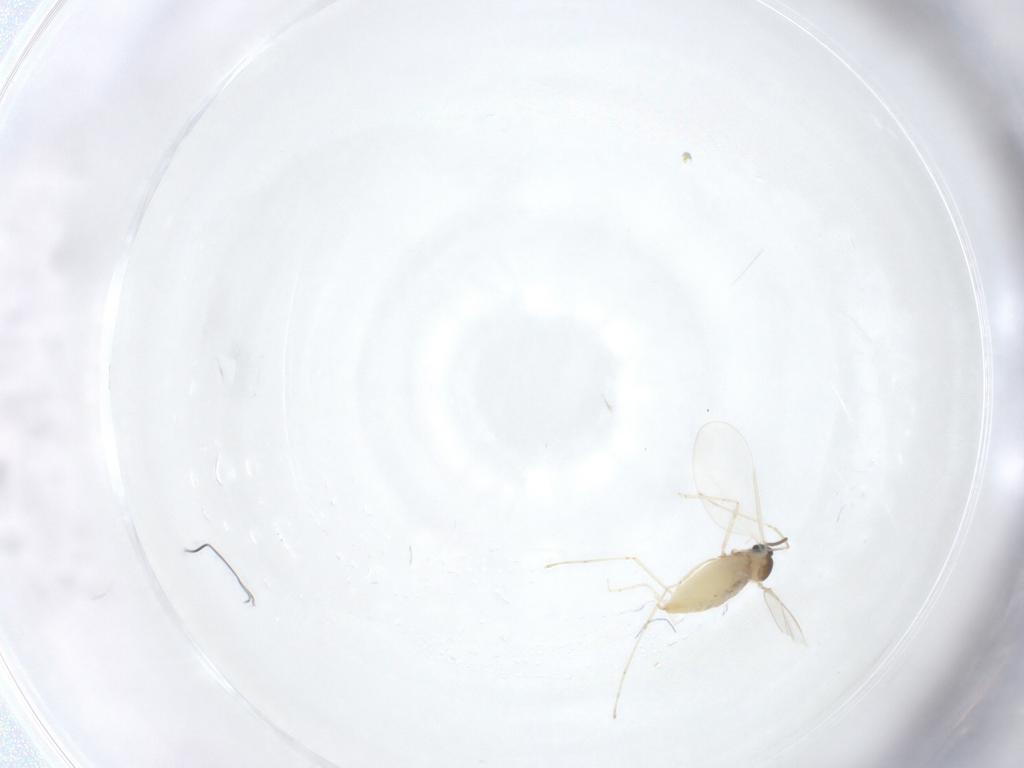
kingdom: Animalia
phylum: Arthropoda
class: Insecta
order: Diptera
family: Cecidomyiidae
